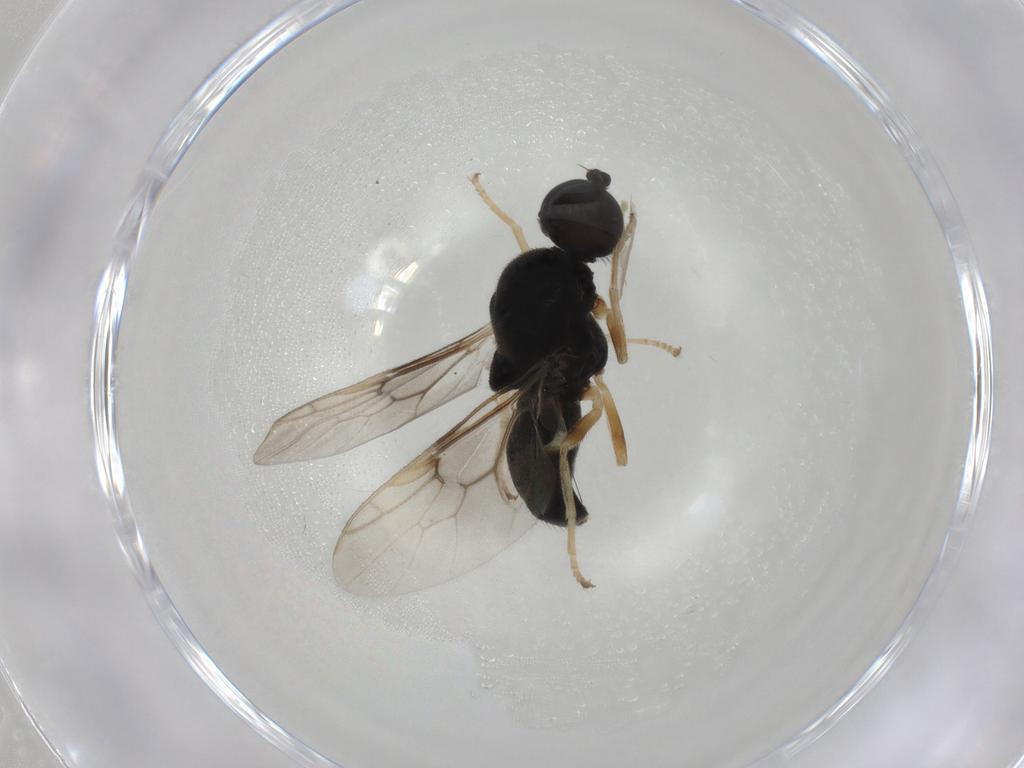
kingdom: Animalia
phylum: Arthropoda
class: Insecta
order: Diptera
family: Stratiomyidae
